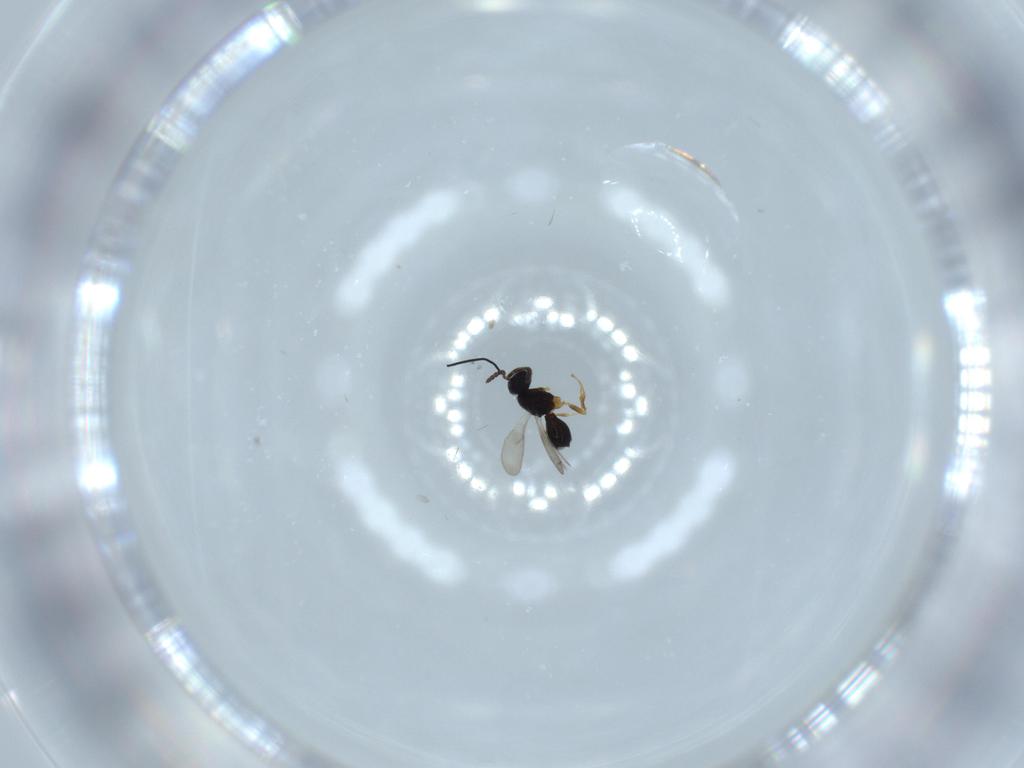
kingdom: Animalia
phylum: Arthropoda
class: Insecta
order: Hymenoptera
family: Scelionidae
